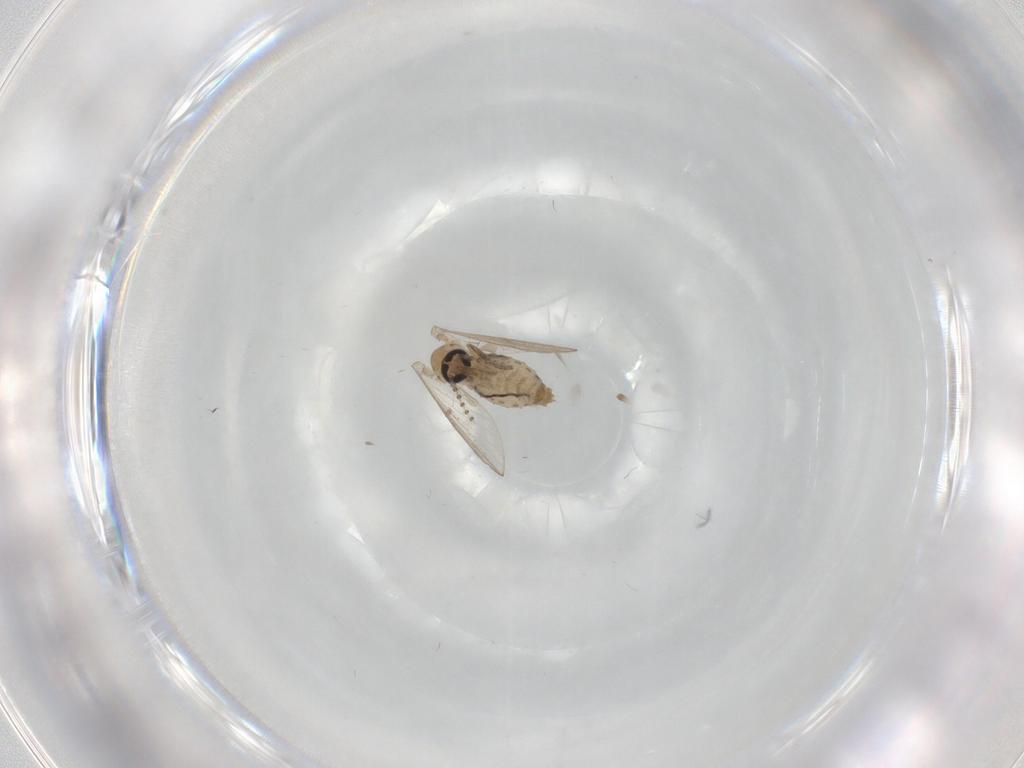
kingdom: Animalia
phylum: Arthropoda
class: Insecta
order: Diptera
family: Psychodidae
